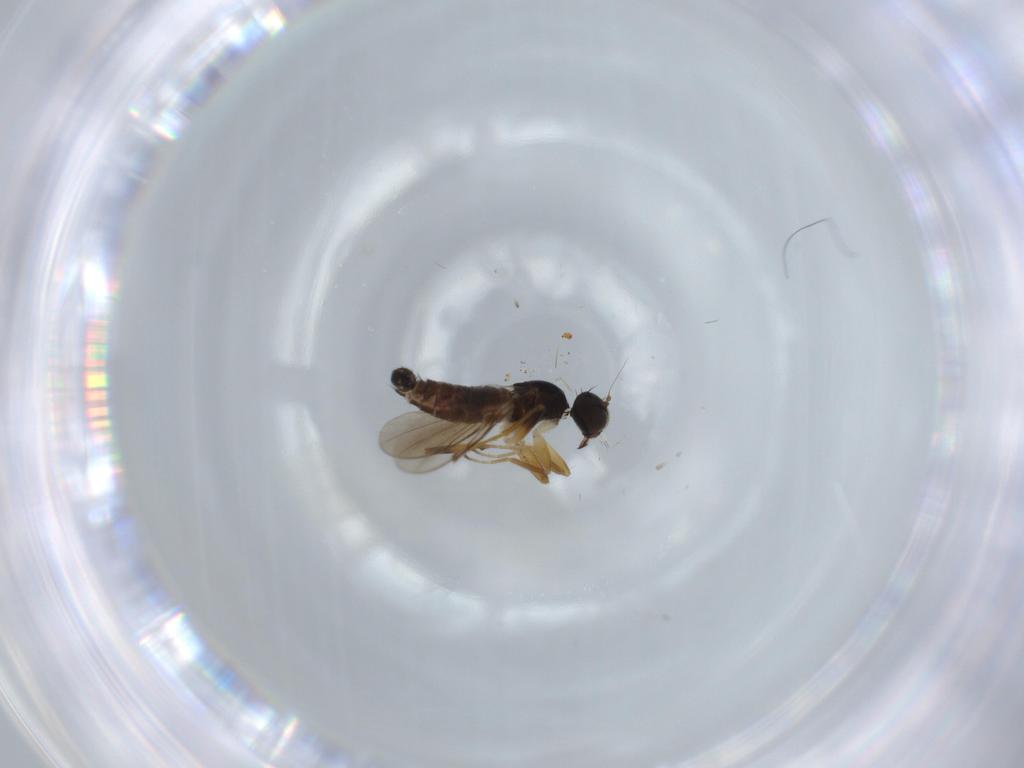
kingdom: Animalia
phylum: Arthropoda
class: Insecta
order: Diptera
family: Hybotidae
